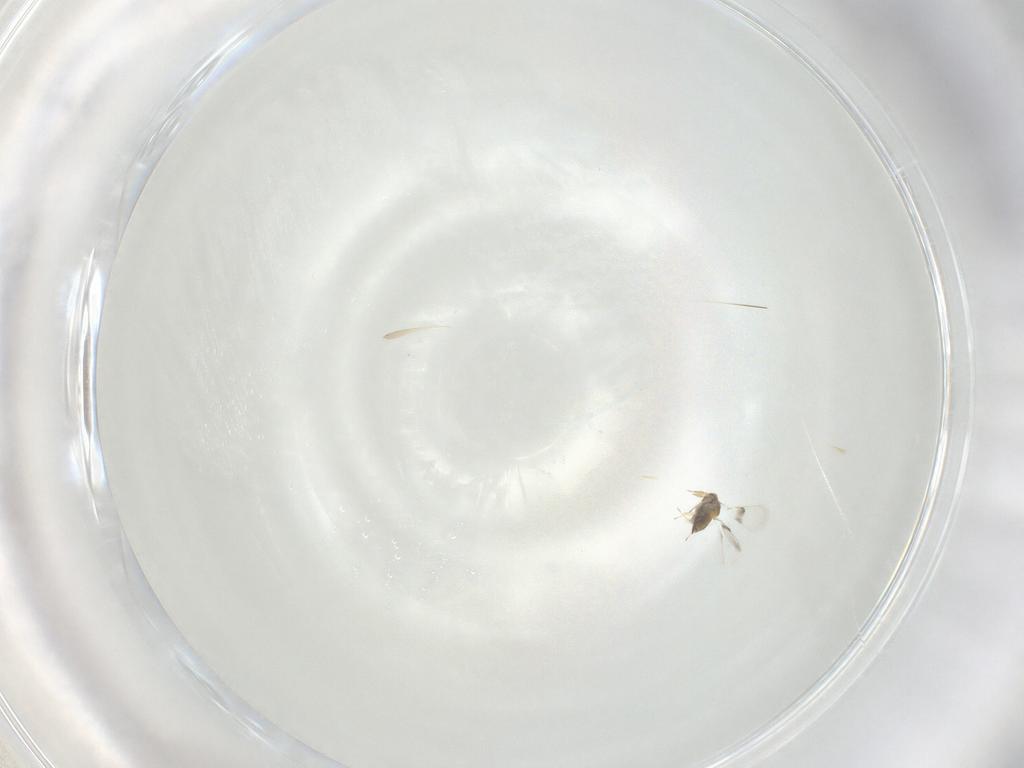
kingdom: Animalia
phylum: Arthropoda
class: Insecta
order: Hymenoptera
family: Trichogrammatidae
